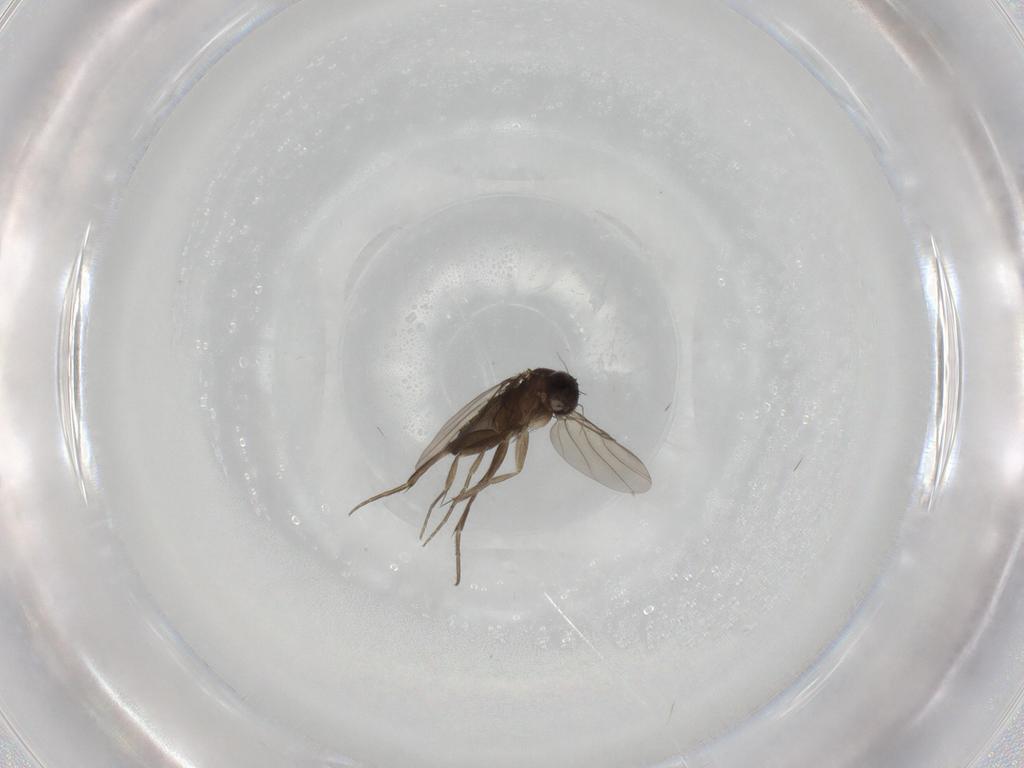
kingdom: Animalia
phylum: Arthropoda
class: Insecta
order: Diptera
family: Phoridae
